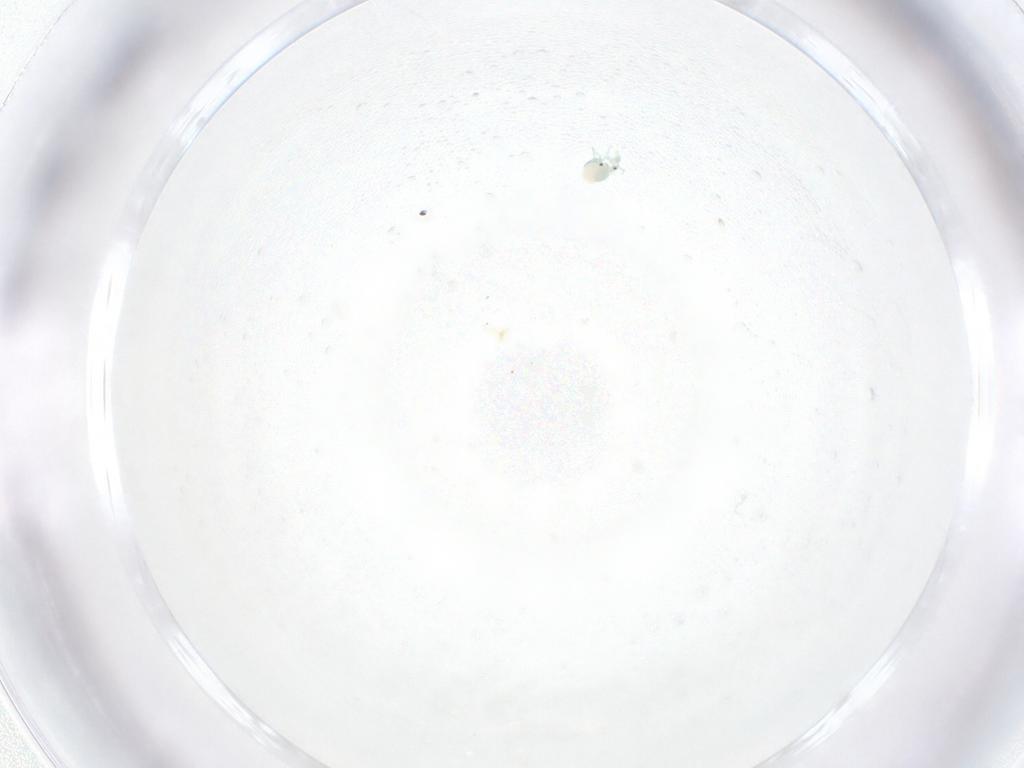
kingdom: Animalia
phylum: Arthropoda
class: Arachnida
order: Trombidiformes
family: Arrenuridae
